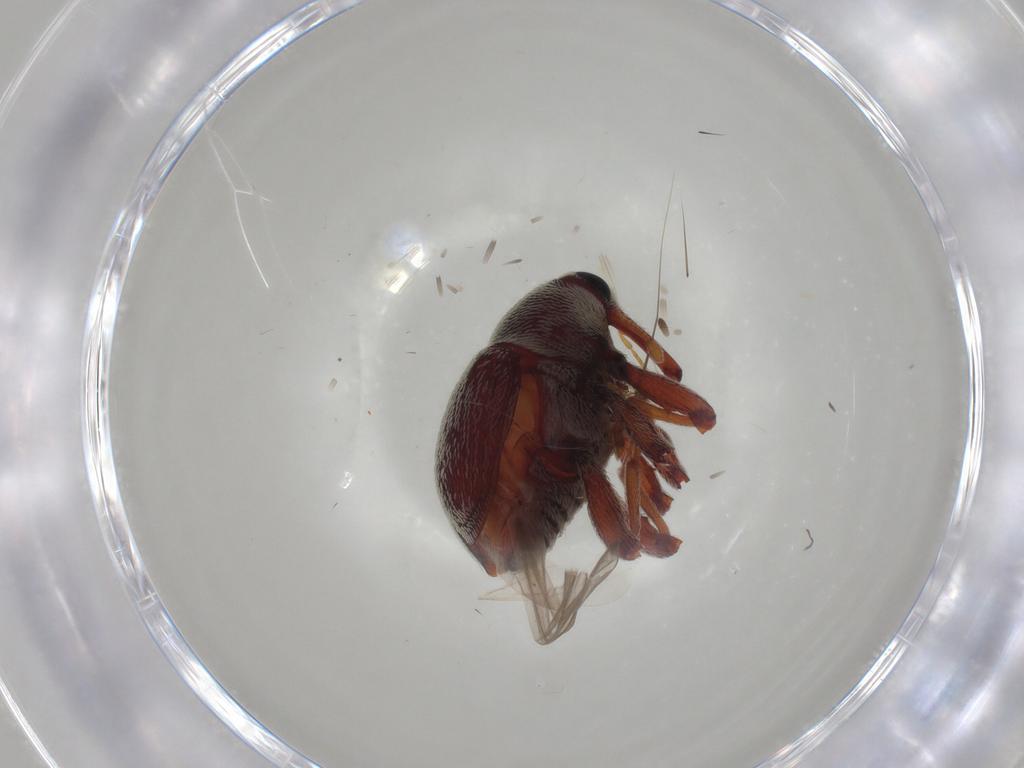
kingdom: Animalia
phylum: Arthropoda
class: Insecta
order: Coleoptera
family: Curculionidae
